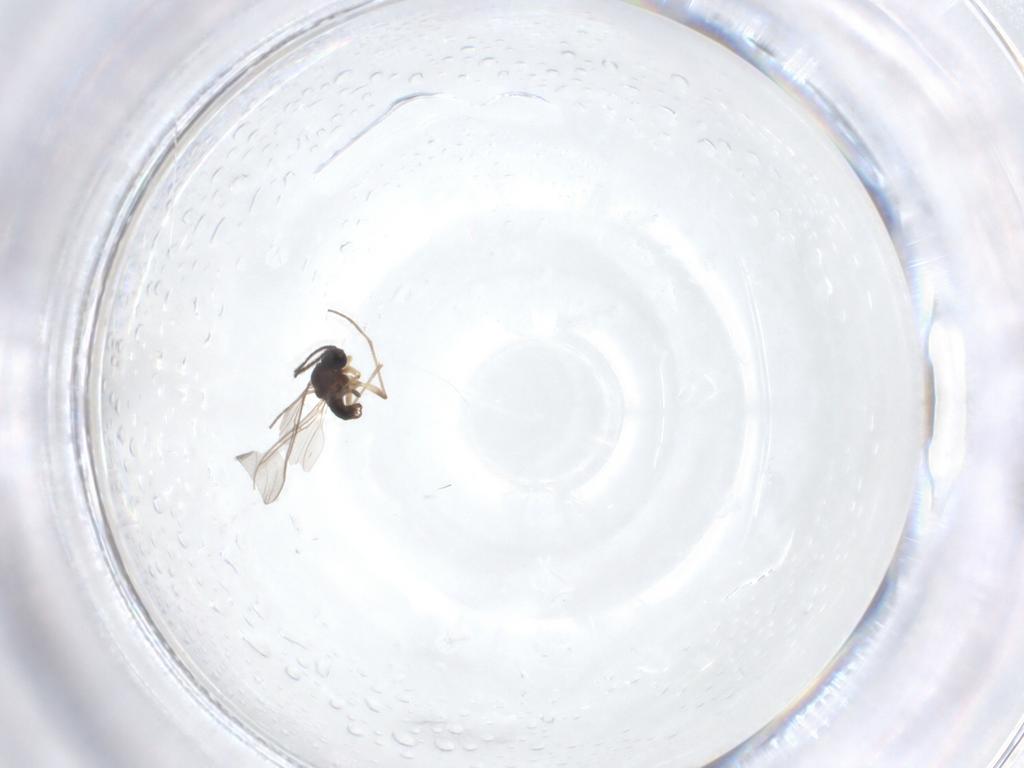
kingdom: Animalia
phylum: Arthropoda
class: Insecta
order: Diptera
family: Sciaridae
